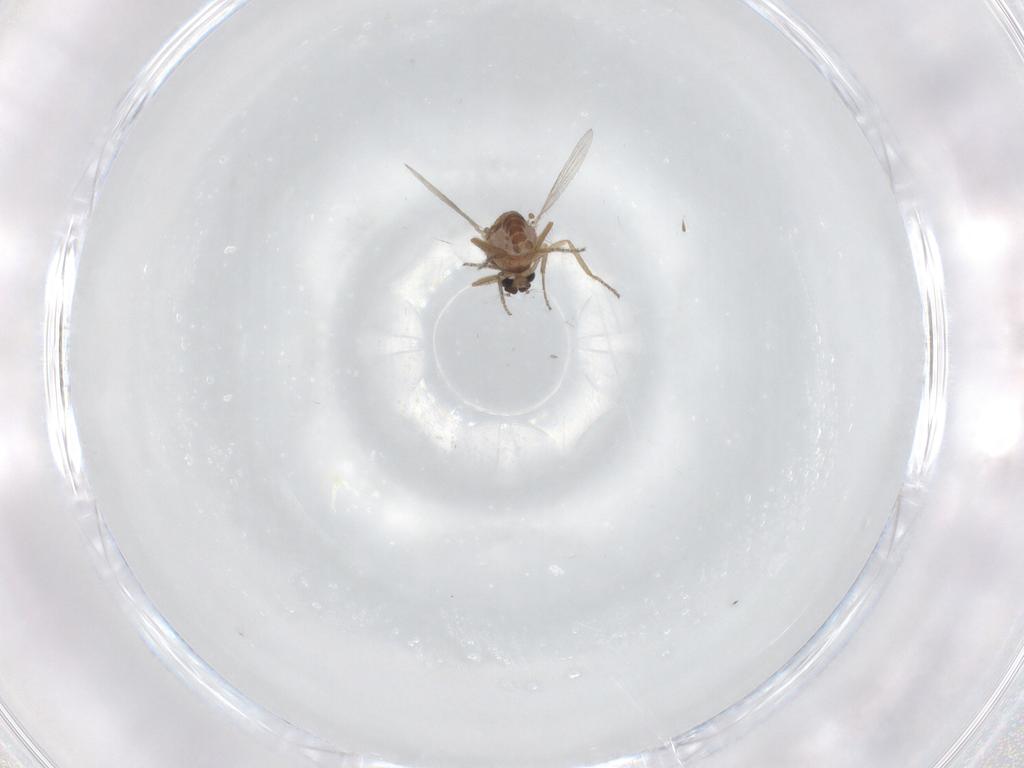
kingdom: Animalia
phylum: Arthropoda
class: Insecta
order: Diptera
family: Ceratopogonidae
